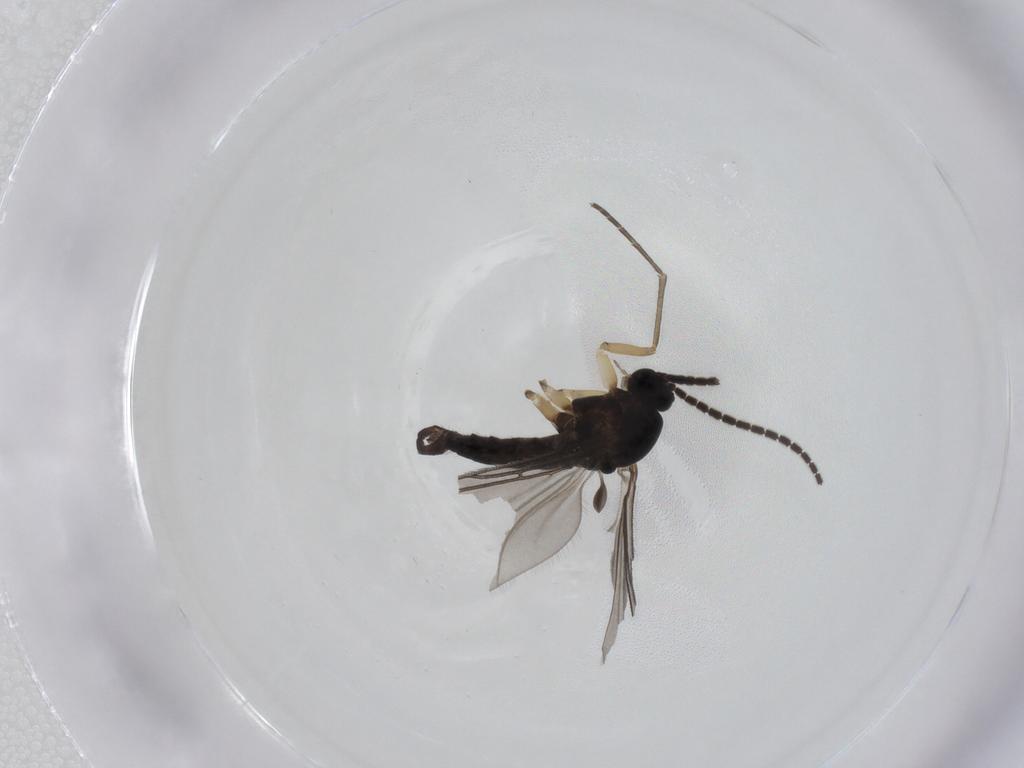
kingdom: Animalia
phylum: Arthropoda
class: Insecta
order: Diptera
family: Sciaridae
